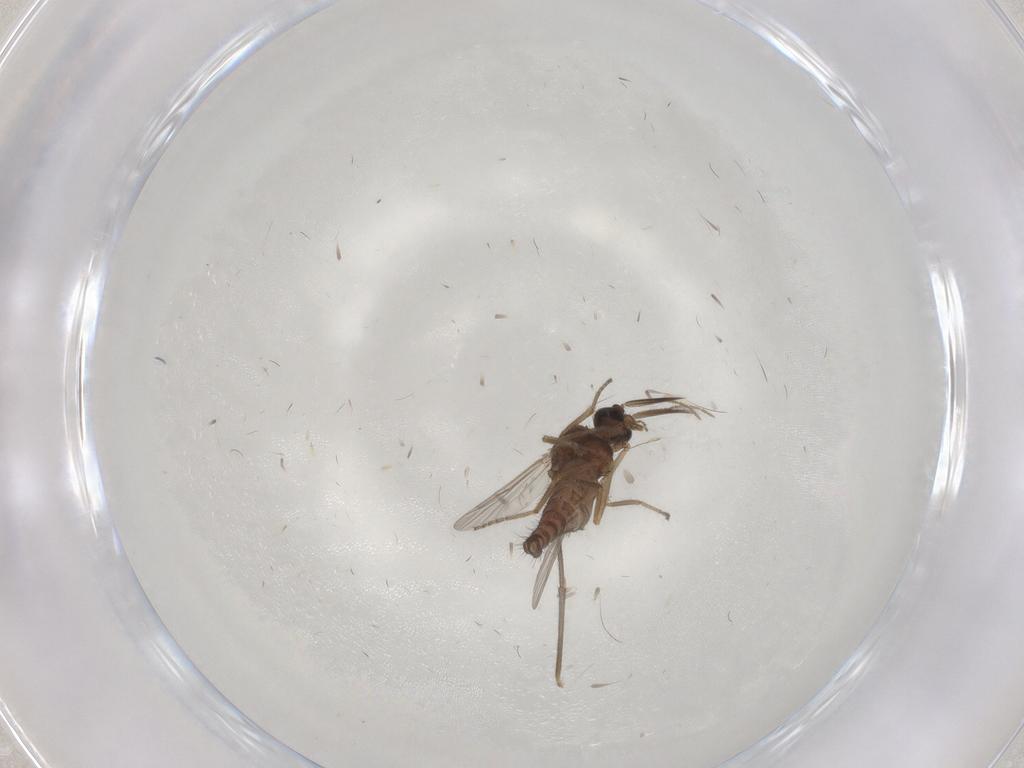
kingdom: Animalia
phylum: Arthropoda
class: Insecta
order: Diptera
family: Ceratopogonidae
